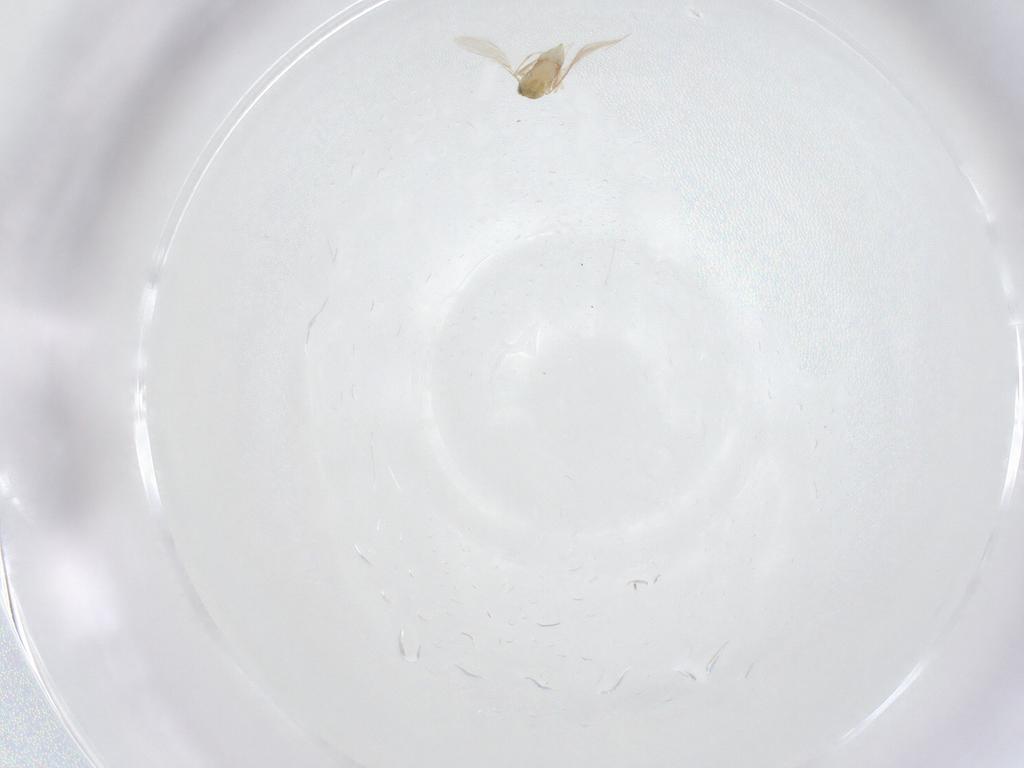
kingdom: Animalia
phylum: Arthropoda
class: Insecta
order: Hymenoptera
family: Aphelinidae
